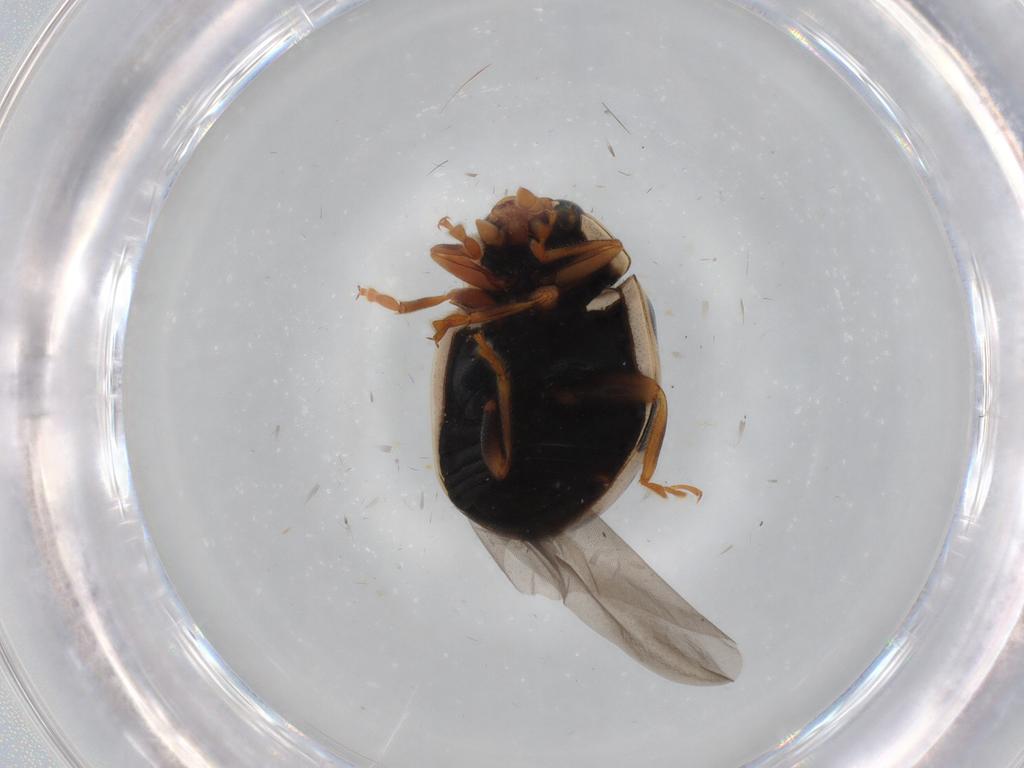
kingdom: Animalia
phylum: Arthropoda
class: Insecta
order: Coleoptera
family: Coccinellidae
